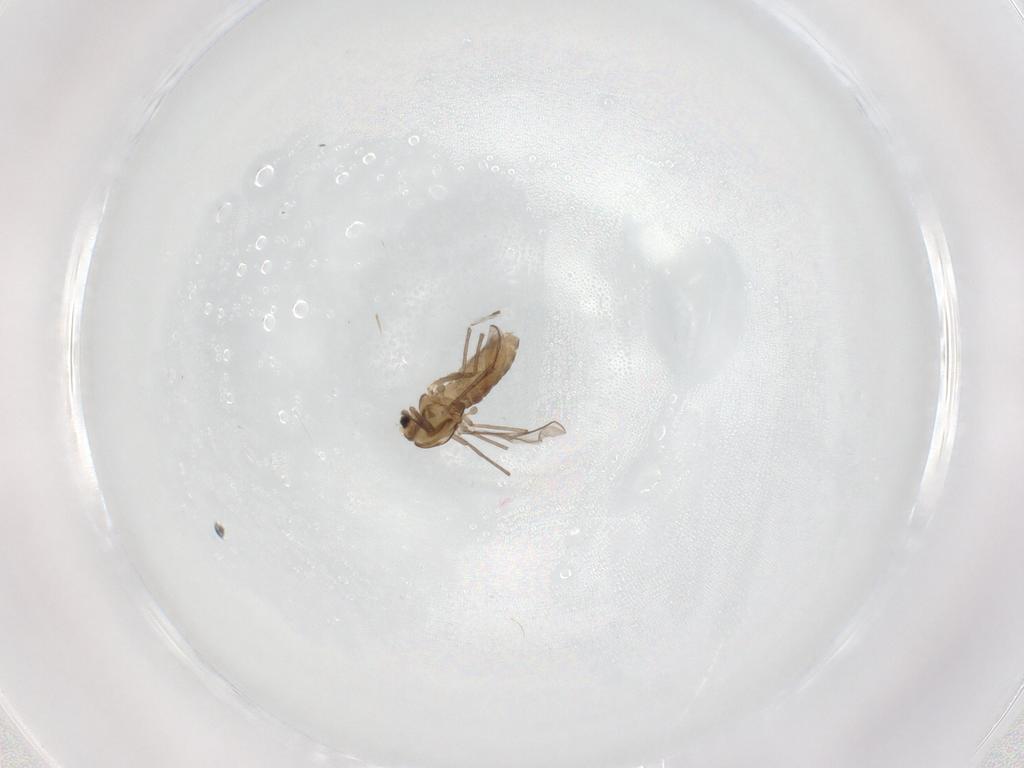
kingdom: Animalia
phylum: Arthropoda
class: Insecta
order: Diptera
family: Chironomidae
